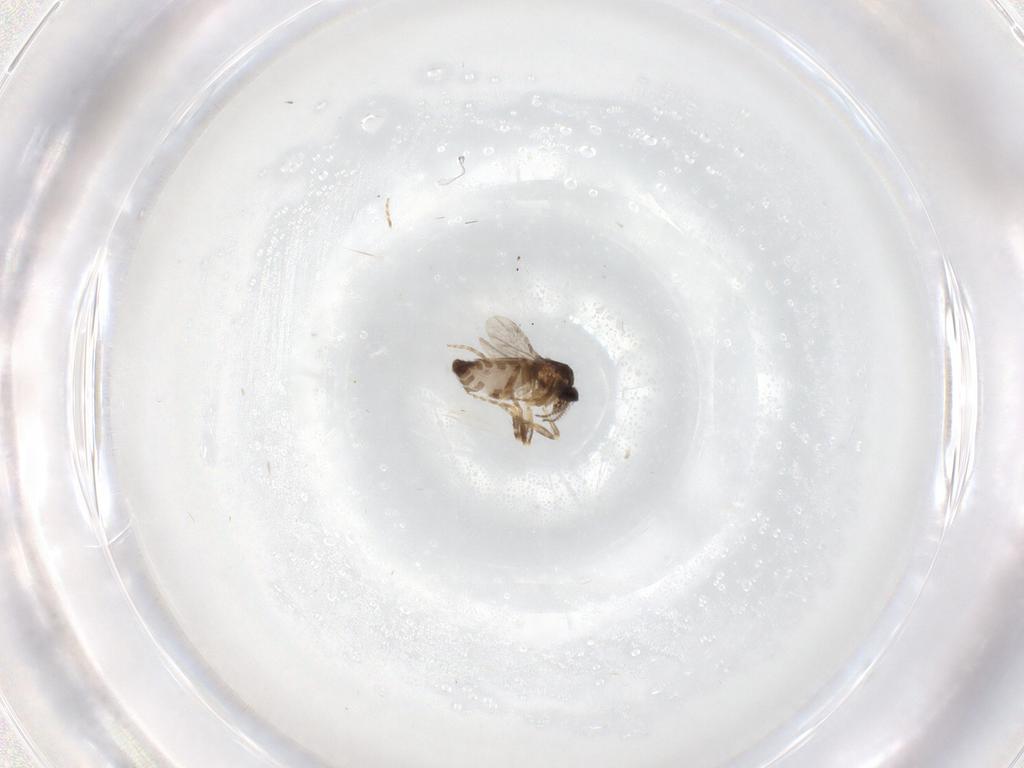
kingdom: Animalia
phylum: Arthropoda
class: Insecta
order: Diptera
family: Ceratopogonidae
